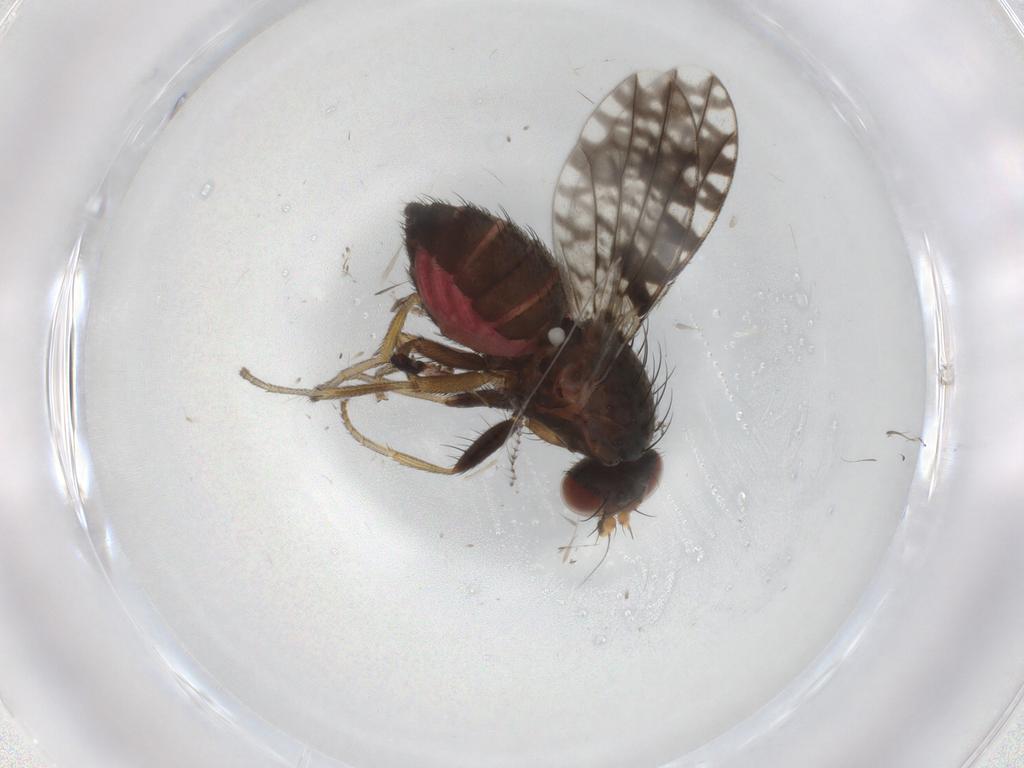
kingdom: Animalia
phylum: Arthropoda
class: Insecta
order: Diptera
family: Tephritidae
